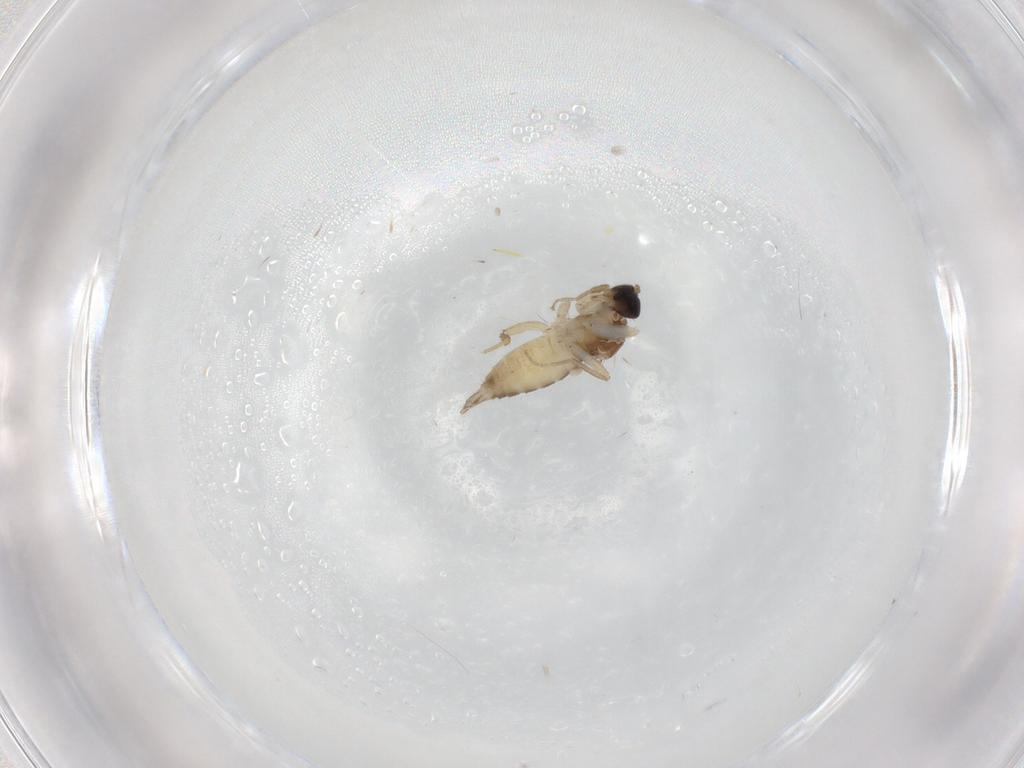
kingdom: Animalia
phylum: Arthropoda
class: Insecta
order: Diptera
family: Hybotidae
